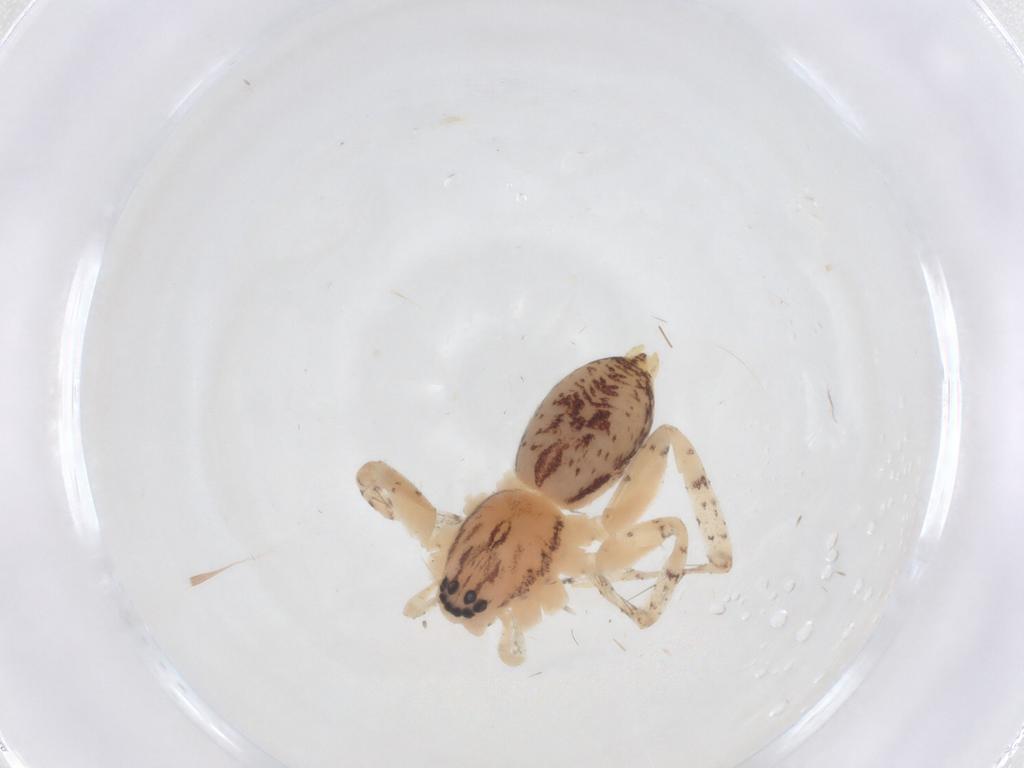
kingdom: Animalia
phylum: Arthropoda
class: Arachnida
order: Araneae
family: Anyphaenidae
